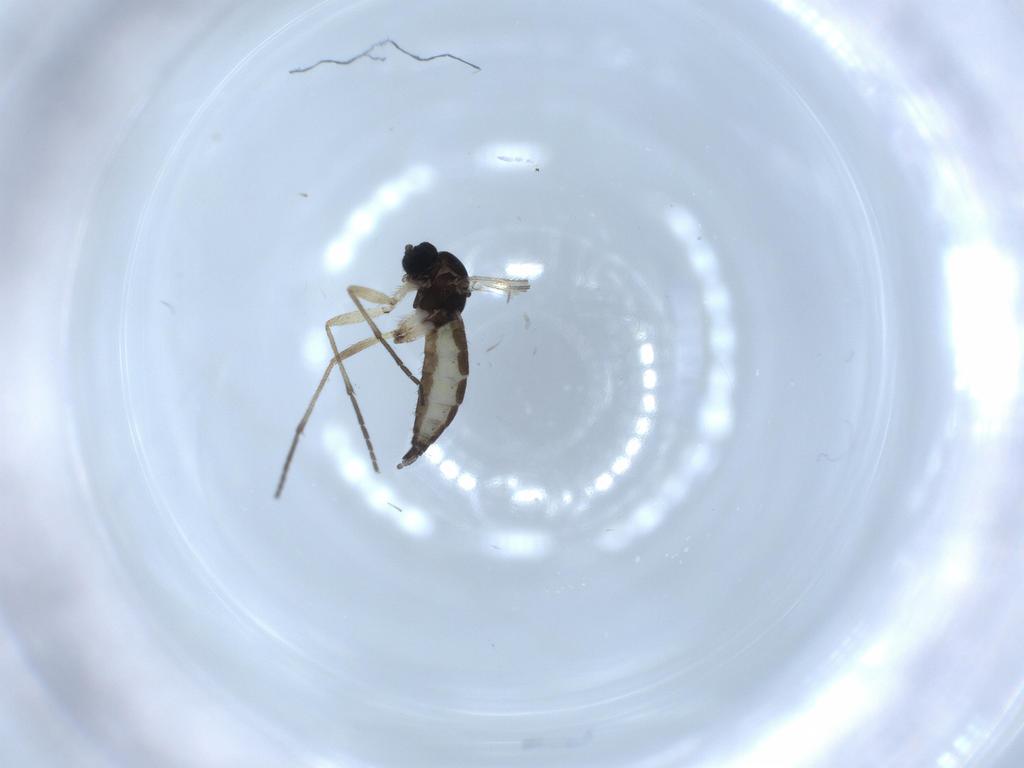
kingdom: Animalia
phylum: Arthropoda
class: Insecta
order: Diptera
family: Sciaridae
